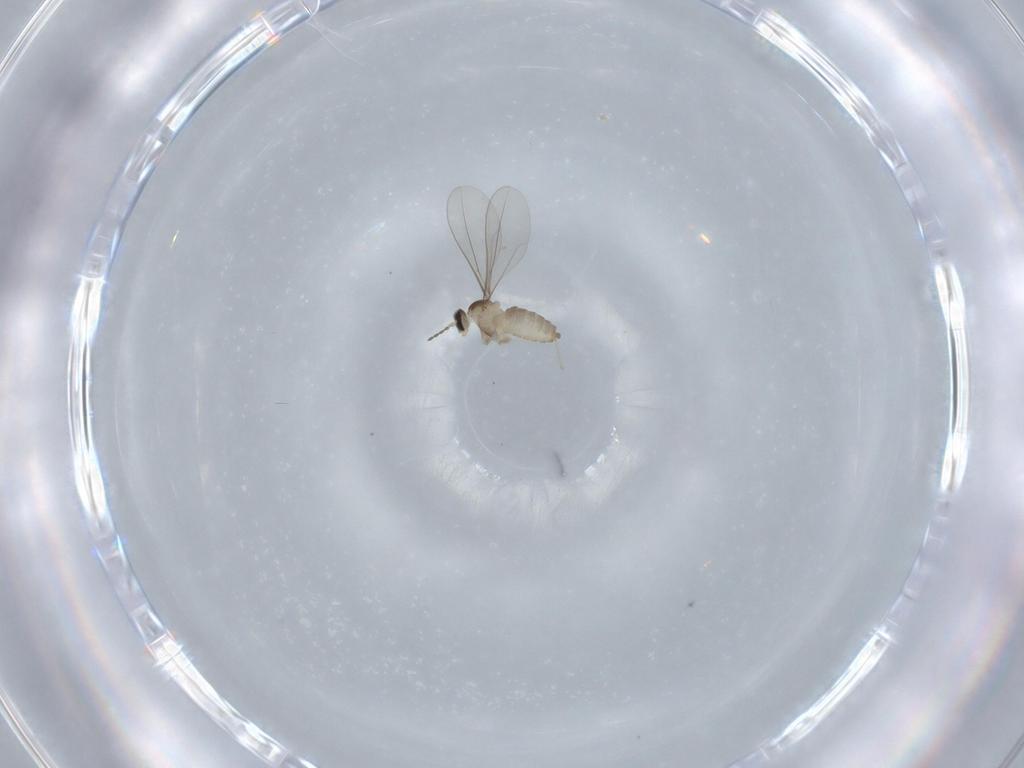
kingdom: Animalia
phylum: Arthropoda
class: Insecta
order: Diptera
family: Cecidomyiidae
